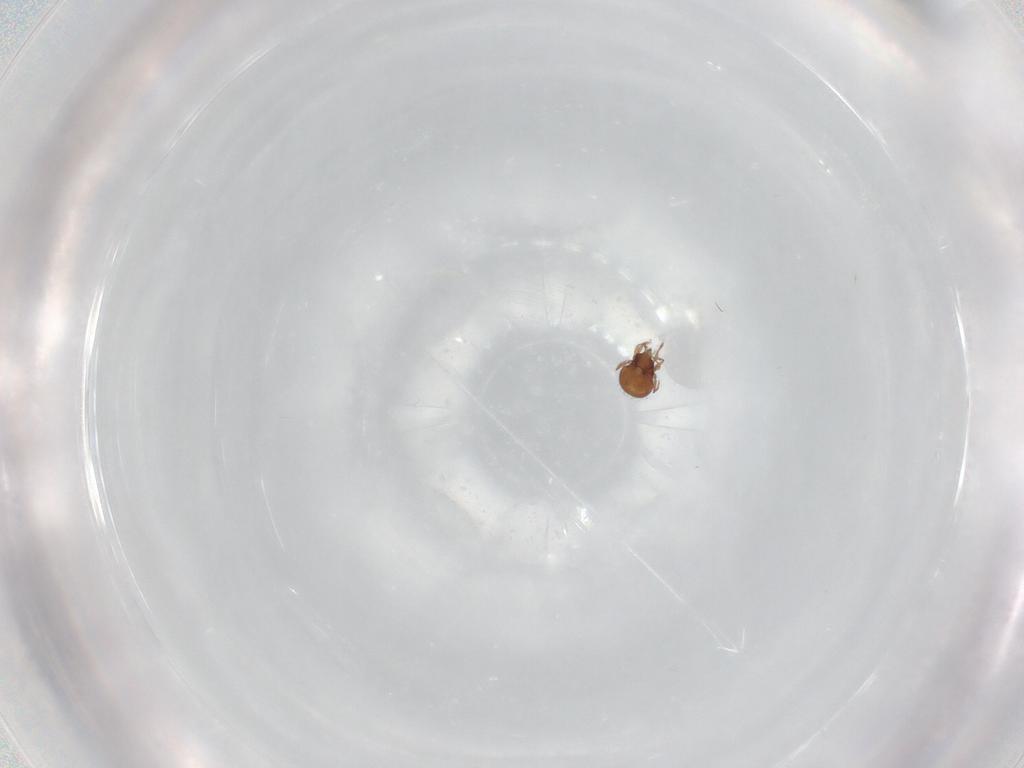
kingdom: Animalia
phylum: Arthropoda
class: Arachnida
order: Sarcoptiformes
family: Oribatulidae
